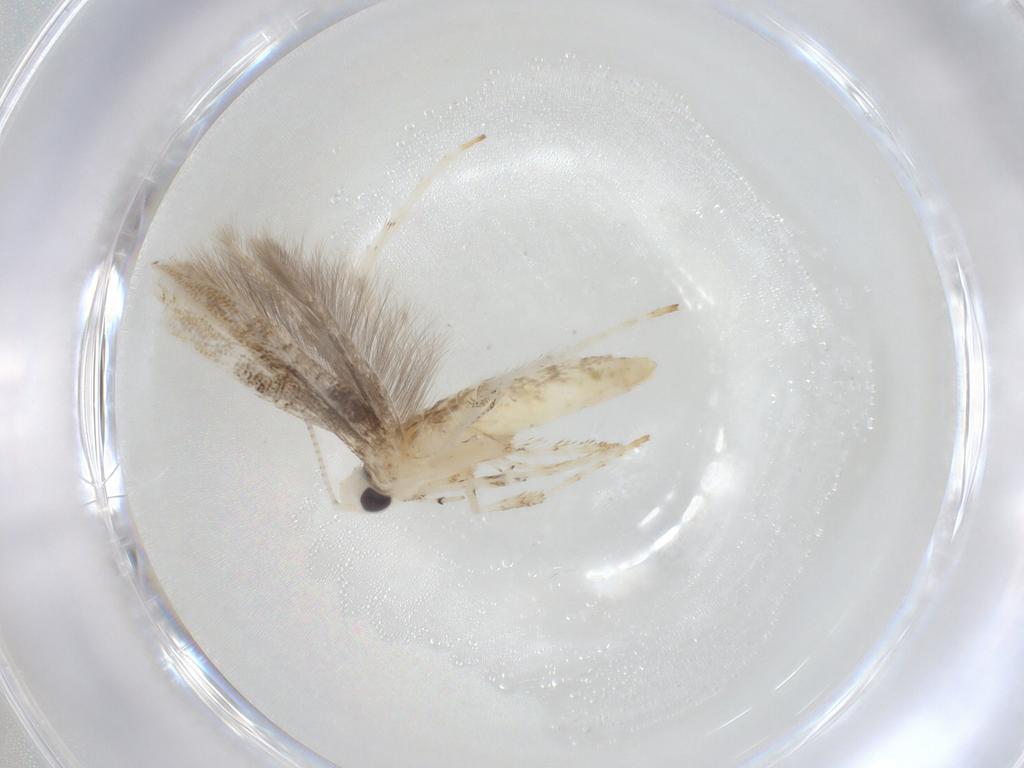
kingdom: Animalia
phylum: Arthropoda
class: Insecta
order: Lepidoptera
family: Gracillariidae
